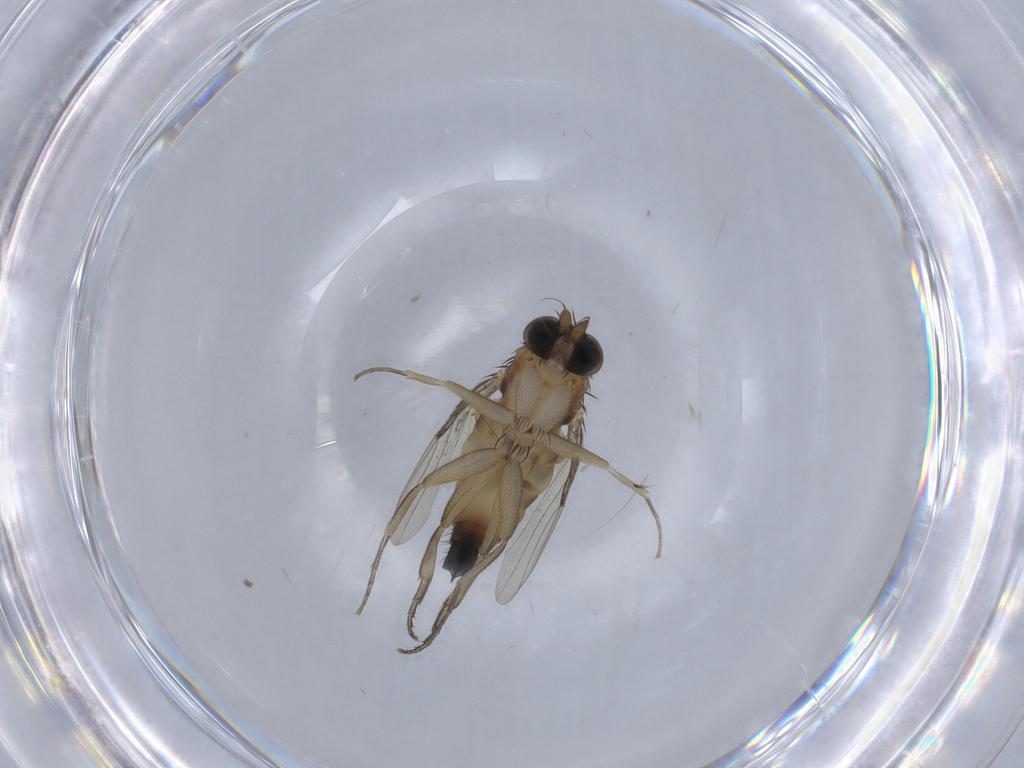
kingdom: Animalia
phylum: Arthropoda
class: Insecta
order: Diptera
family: Phoridae
